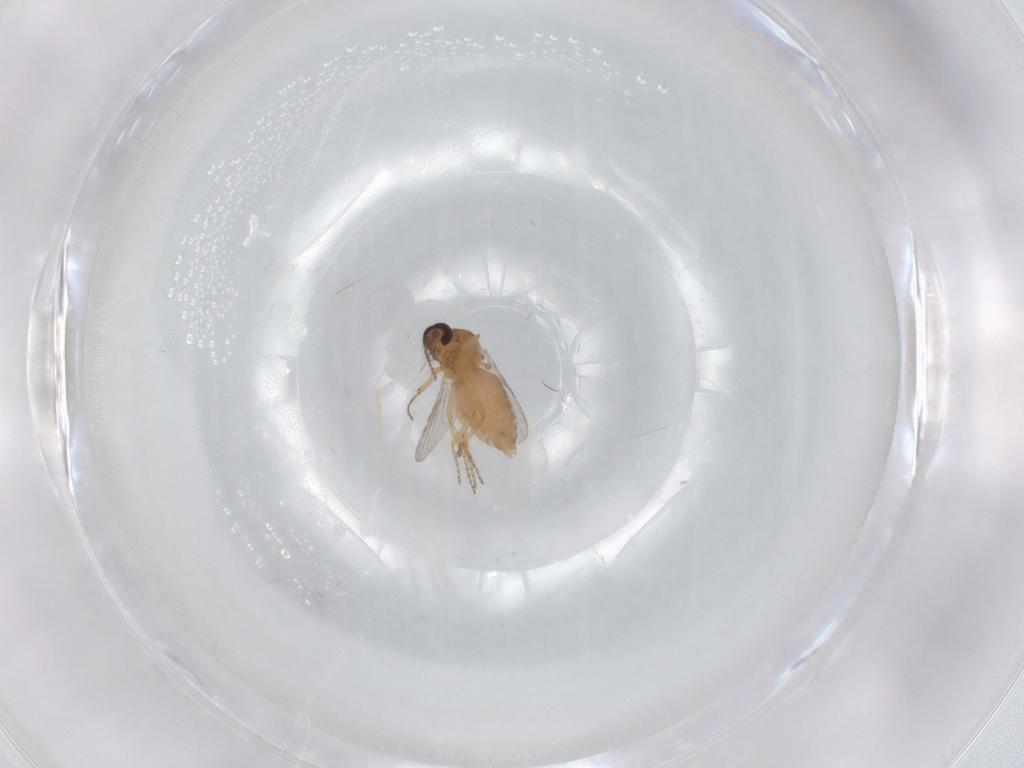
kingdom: Animalia
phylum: Arthropoda
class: Insecta
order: Diptera
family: Ceratopogonidae
